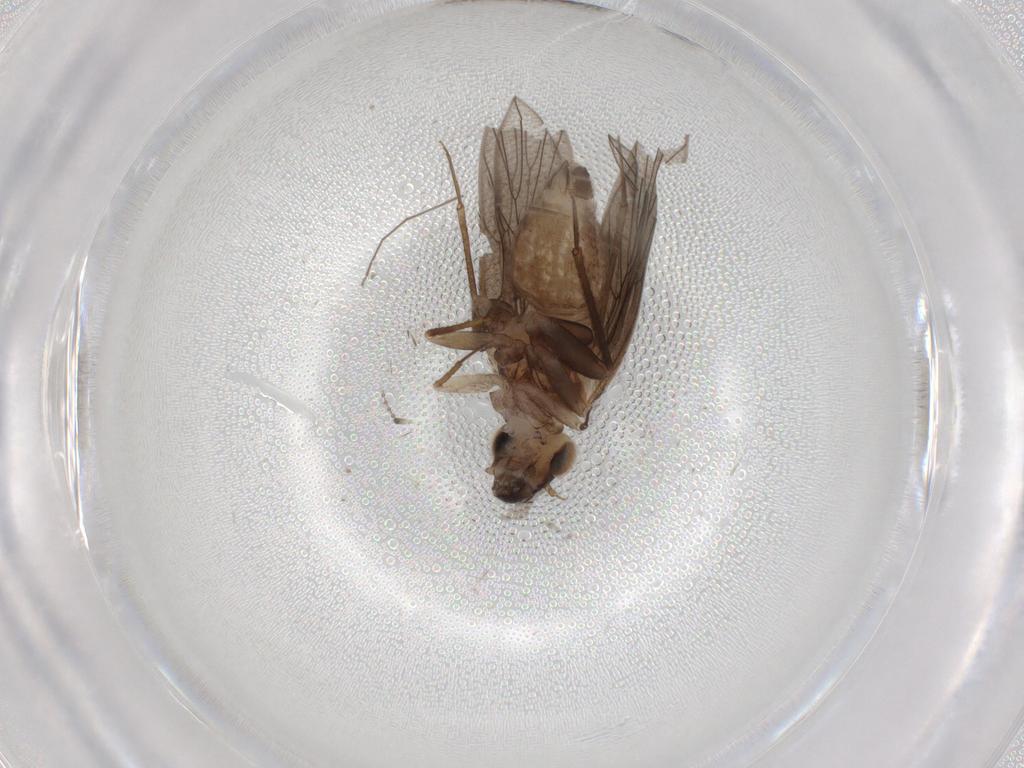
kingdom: Animalia
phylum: Arthropoda
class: Insecta
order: Psocodea
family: Lepidopsocidae
